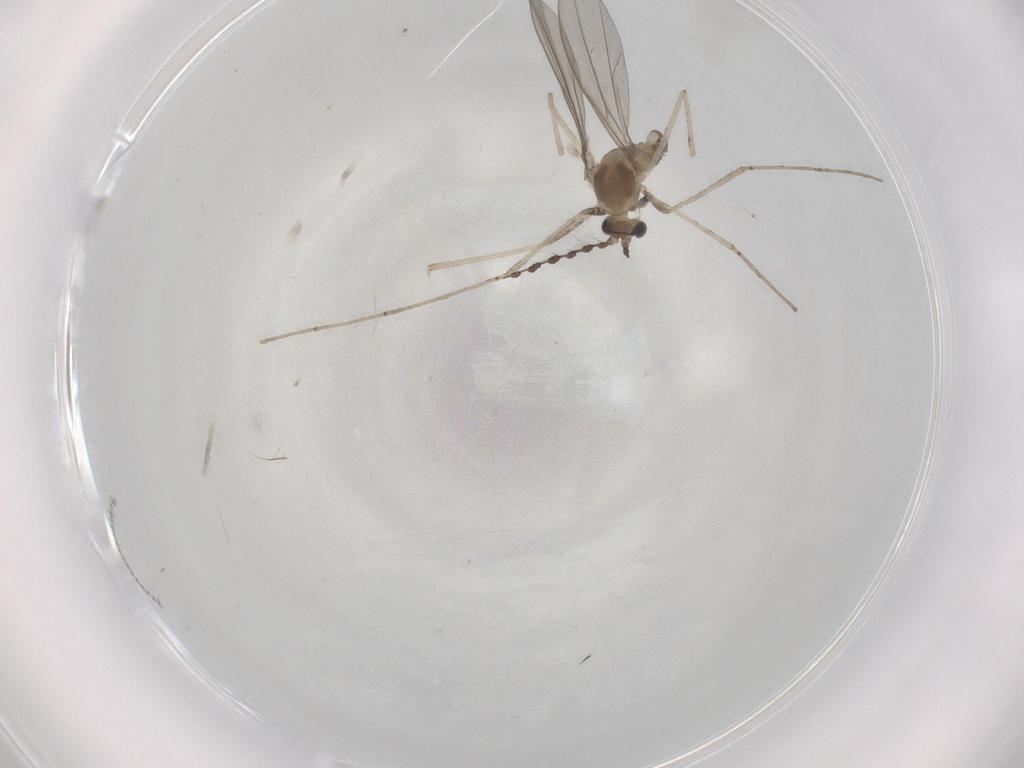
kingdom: Animalia
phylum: Arthropoda
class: Insecta
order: Diptera
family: Cecidomyiidae
